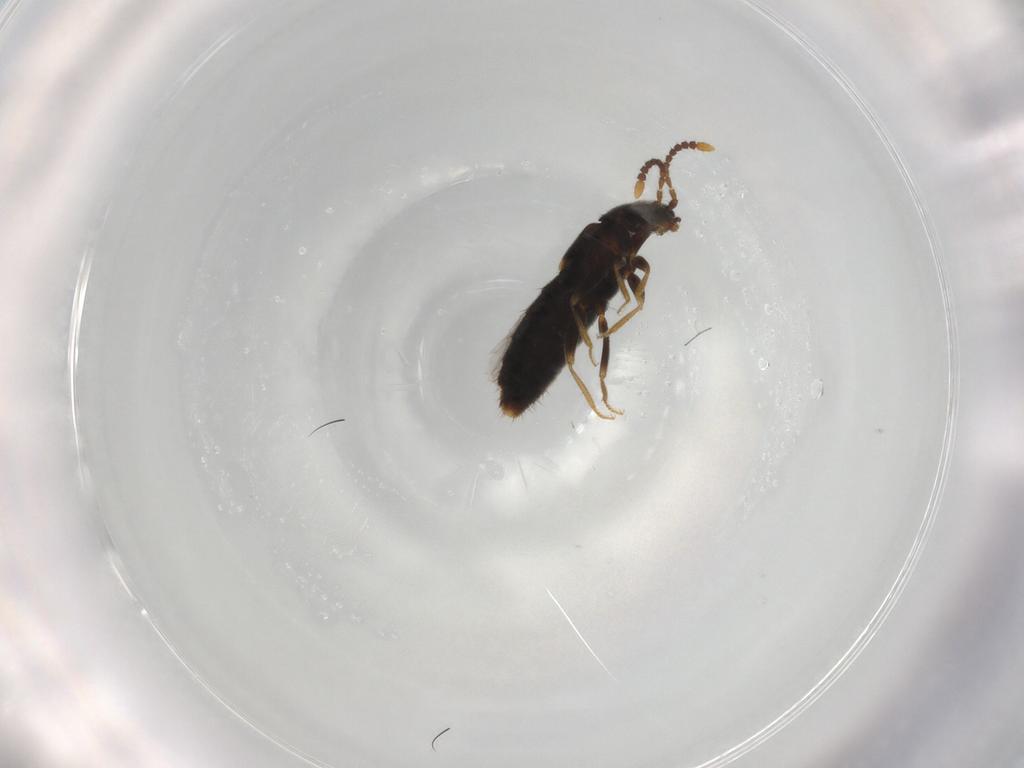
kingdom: Animalia
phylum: Arthropoda
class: Insecta
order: Coleoptera
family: Staphylinidae
